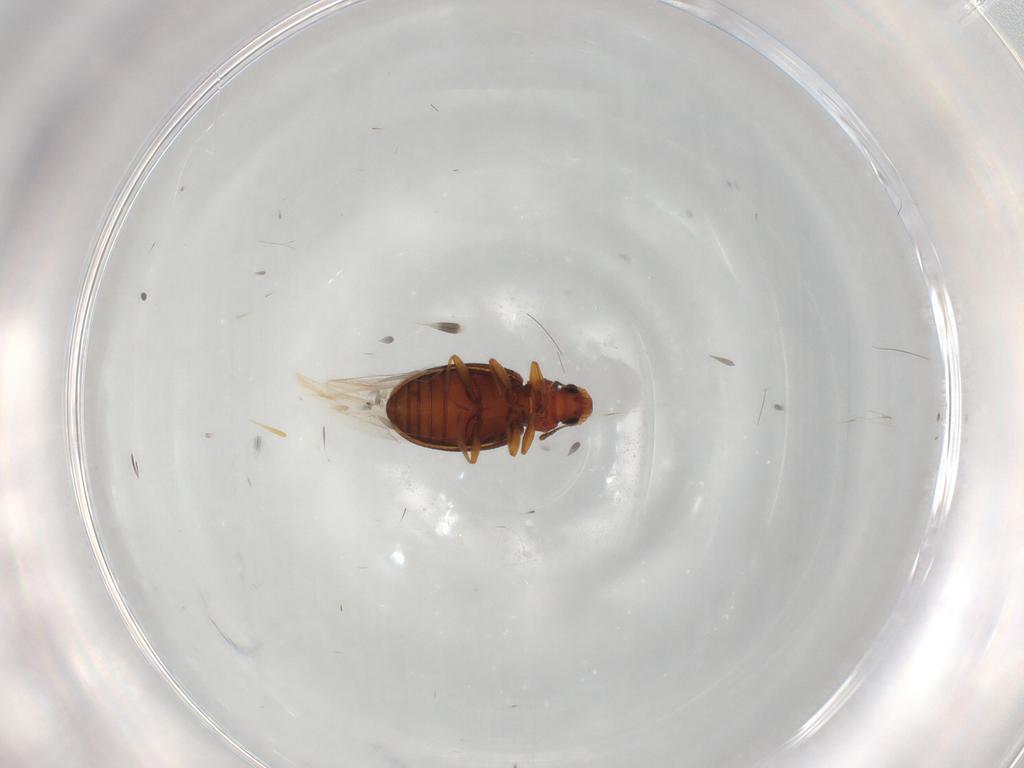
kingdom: Animalia
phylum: Arthropoda
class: Insecta
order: Coleoptera
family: Latridiidae
